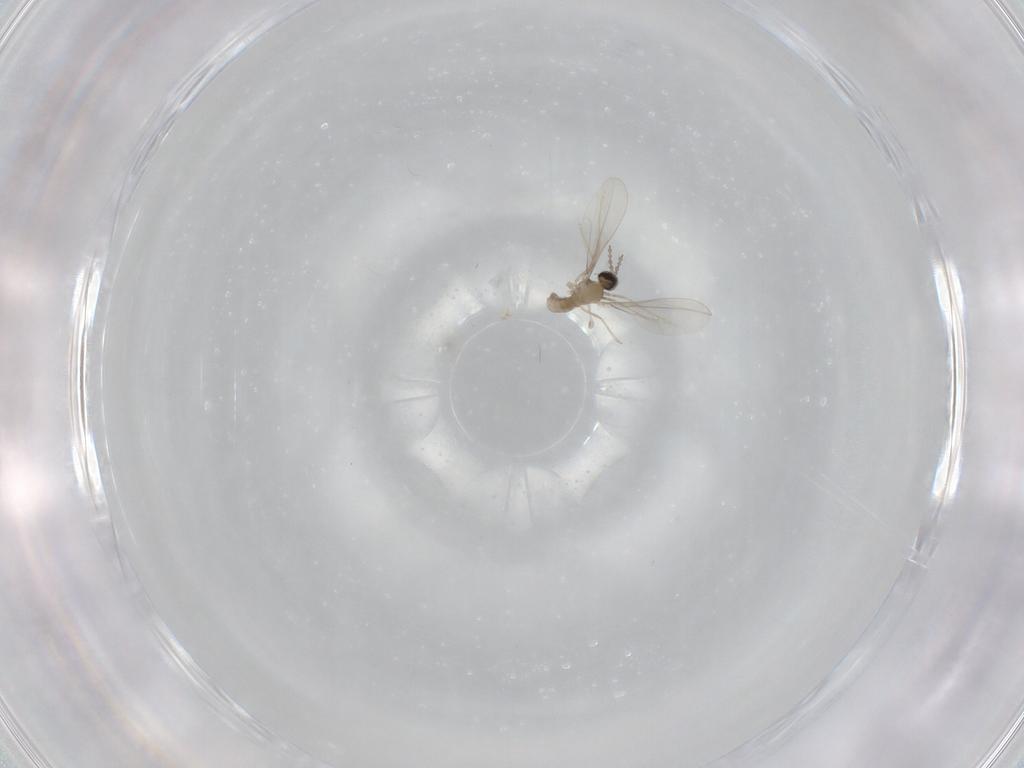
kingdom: Animalia
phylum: Arthropoda
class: Insecta
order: Diptera
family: Cecidomyiidae
